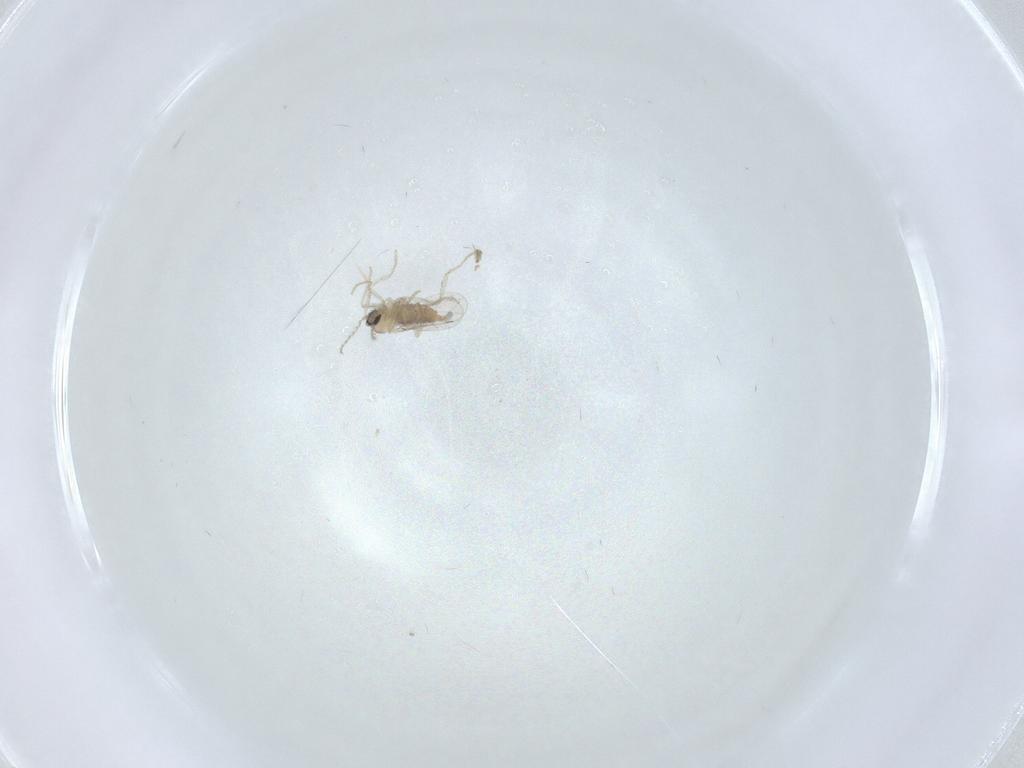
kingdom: Animalia
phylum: Arthropoda
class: Insecta
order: Diptera
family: Cecidomyiidae
